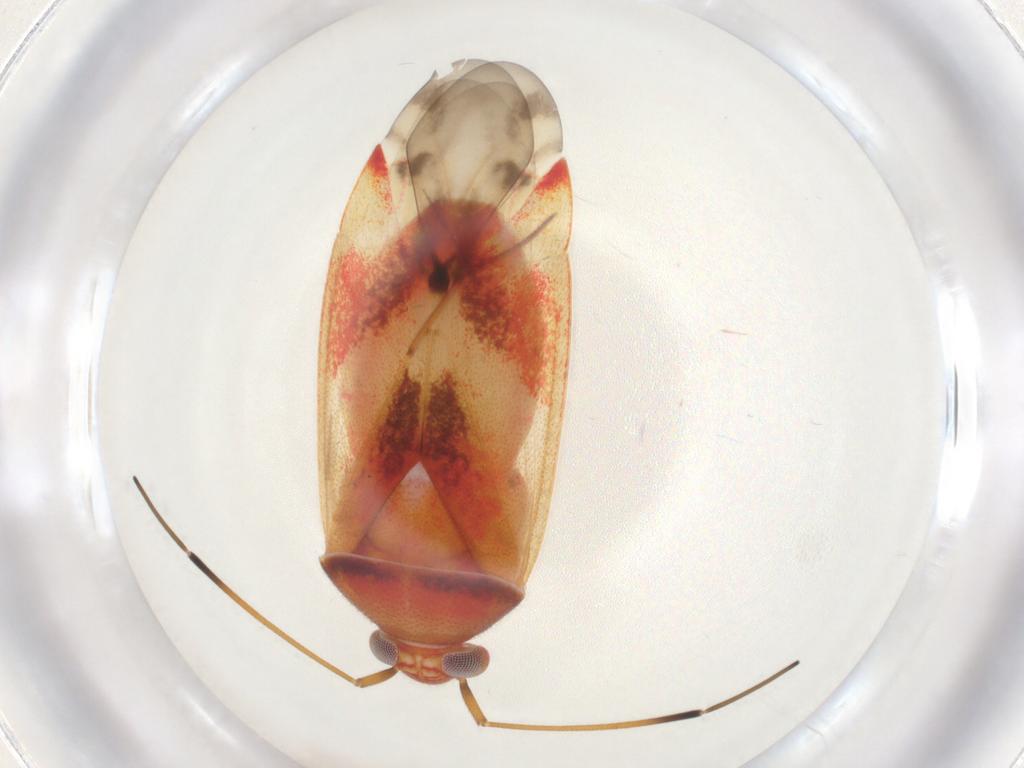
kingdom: Animalia
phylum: Arthropoda
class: Insecta
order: Hemiptera
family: Miridae
